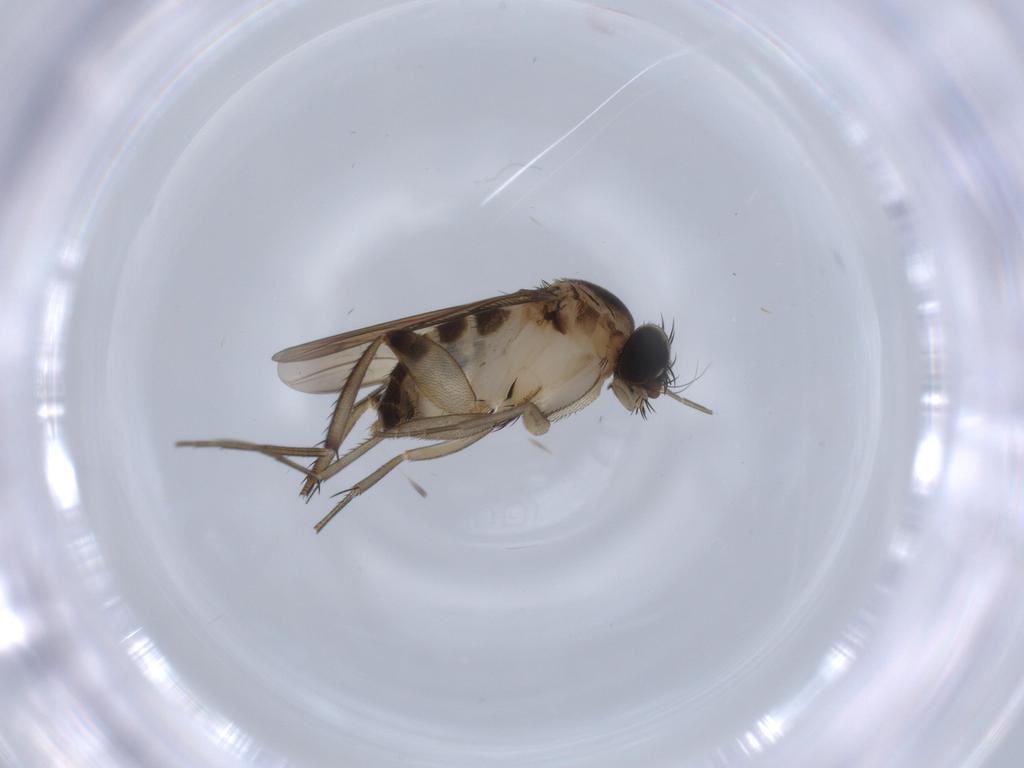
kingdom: Animalia
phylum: Arthropoda
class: Insecta
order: Diptera
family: Phoridae
